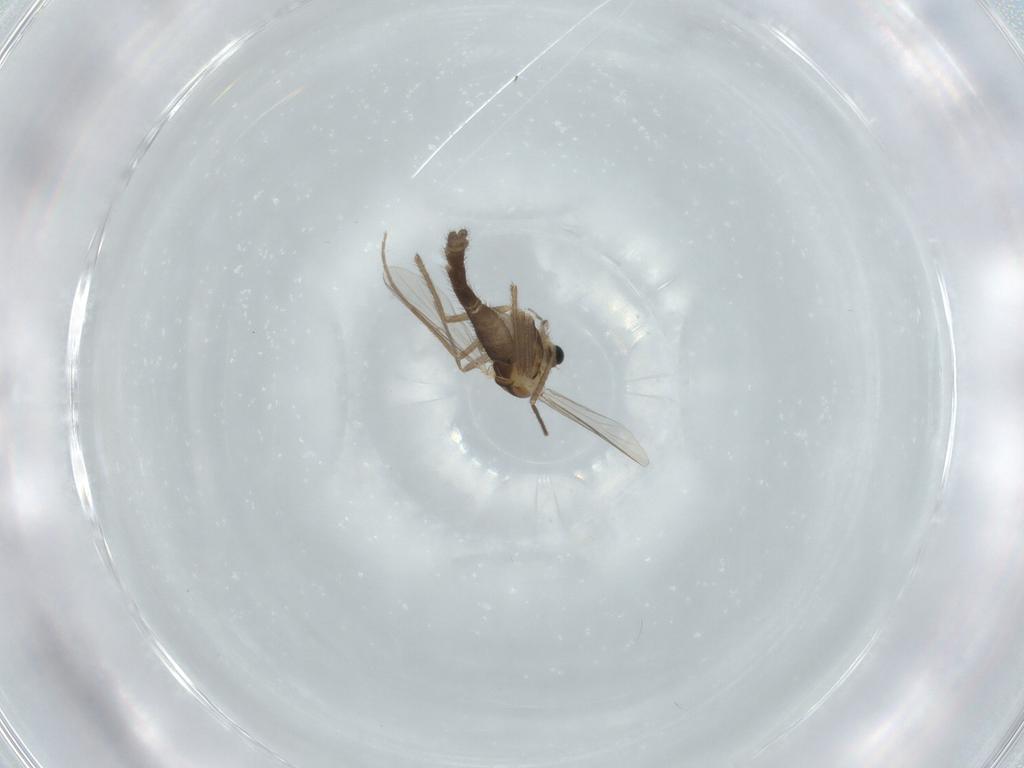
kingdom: Animalia
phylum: Arthropoda
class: Insecta
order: Diptera
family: Chironomidae
